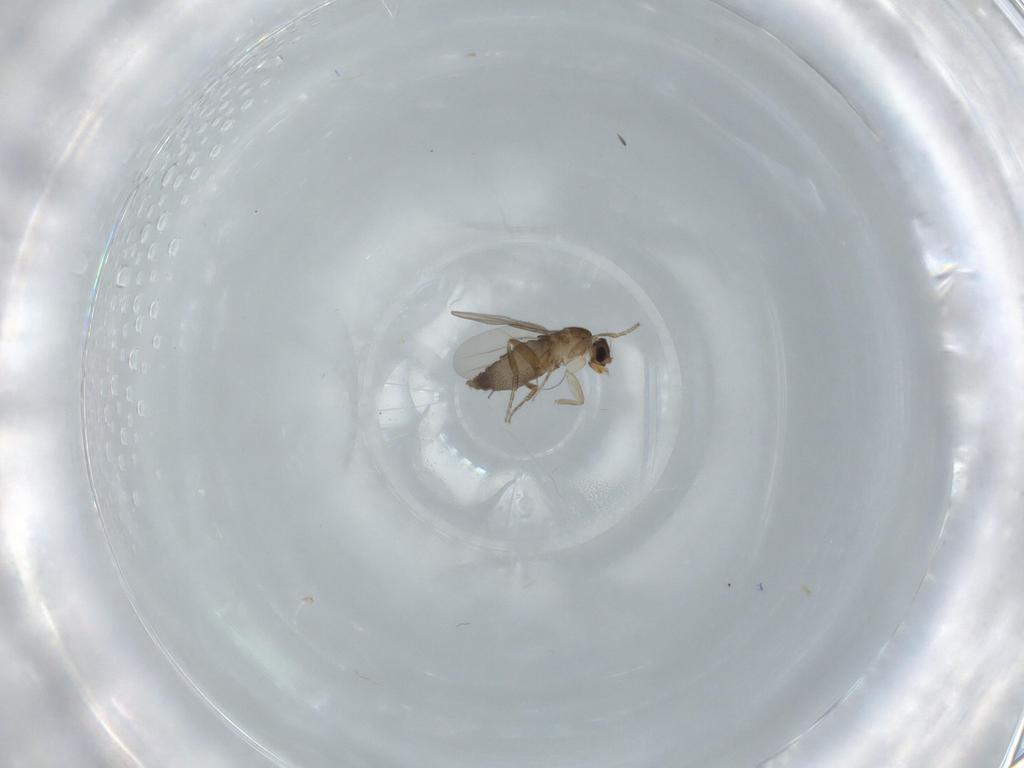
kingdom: Animalia
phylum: Arthropoda
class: Insecta
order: Diptera
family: Phoridae
